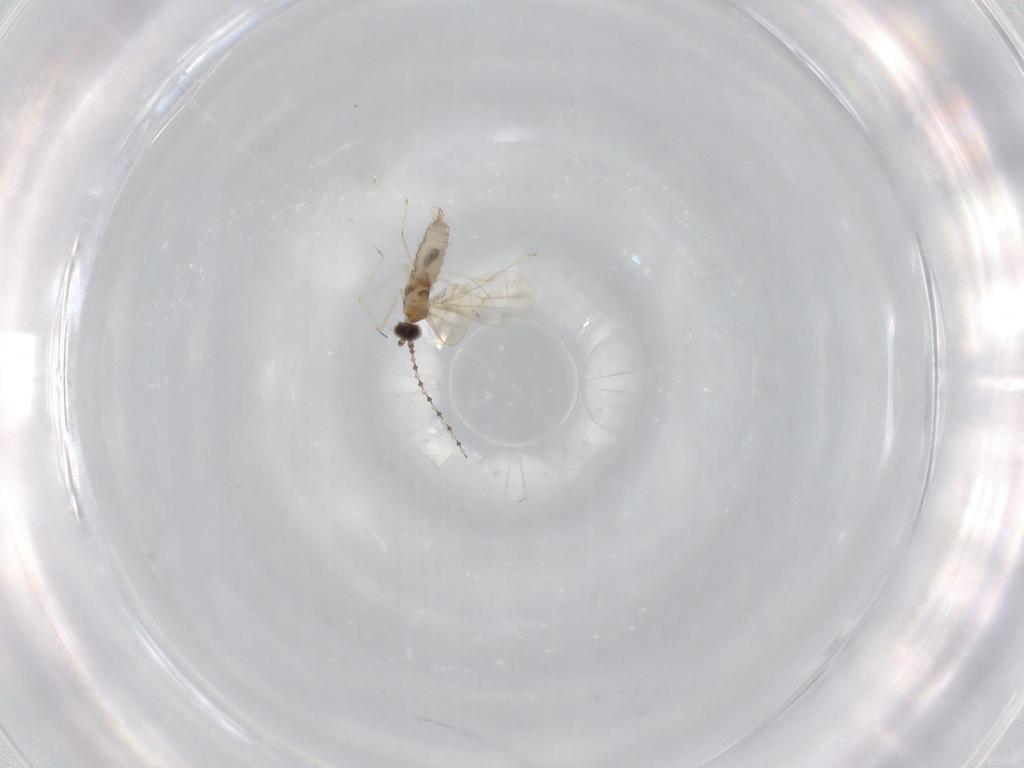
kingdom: Animalia
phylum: Arthropoda
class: Insecta
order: Diptera
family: Cecidomyiidae
